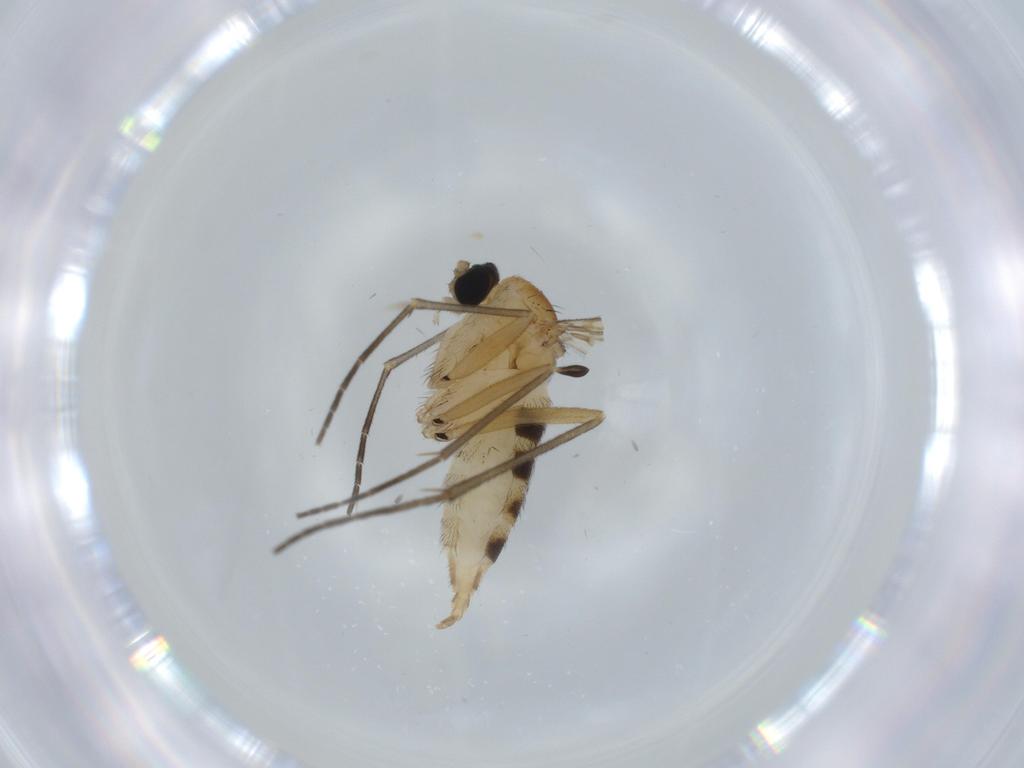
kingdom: Animalia
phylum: Arthropoda
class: Insecta
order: Diptera
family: Sciaridae
